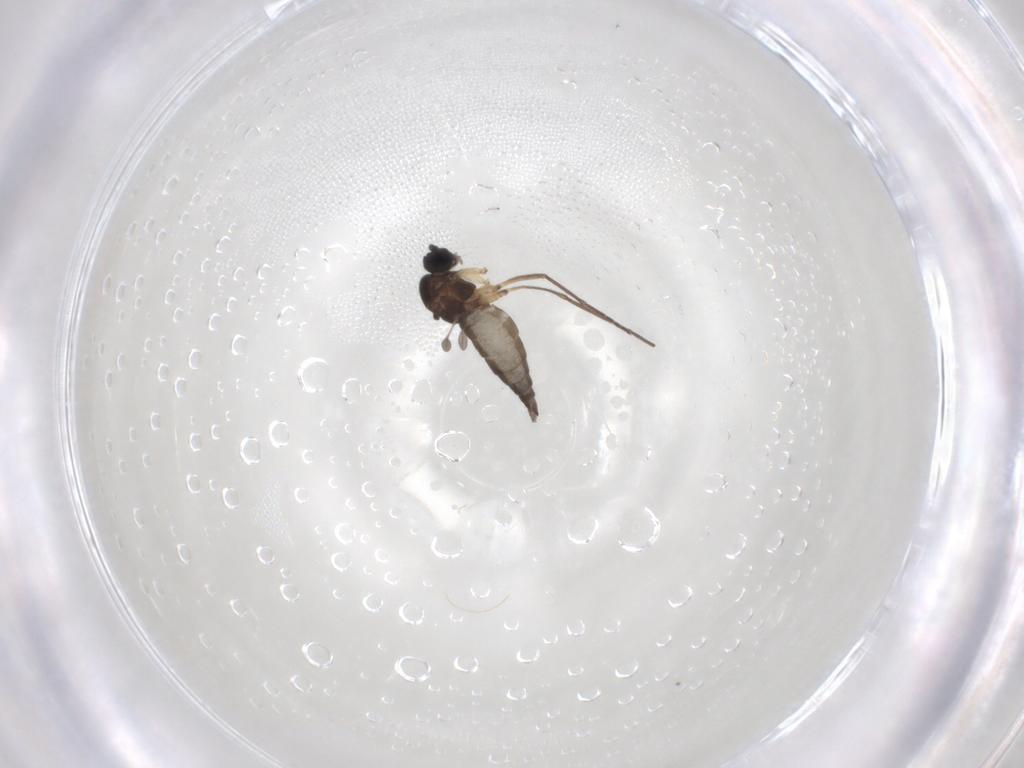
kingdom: Animalia
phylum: Arthropoda
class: Insecta
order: Diptera
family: Sciaridae
